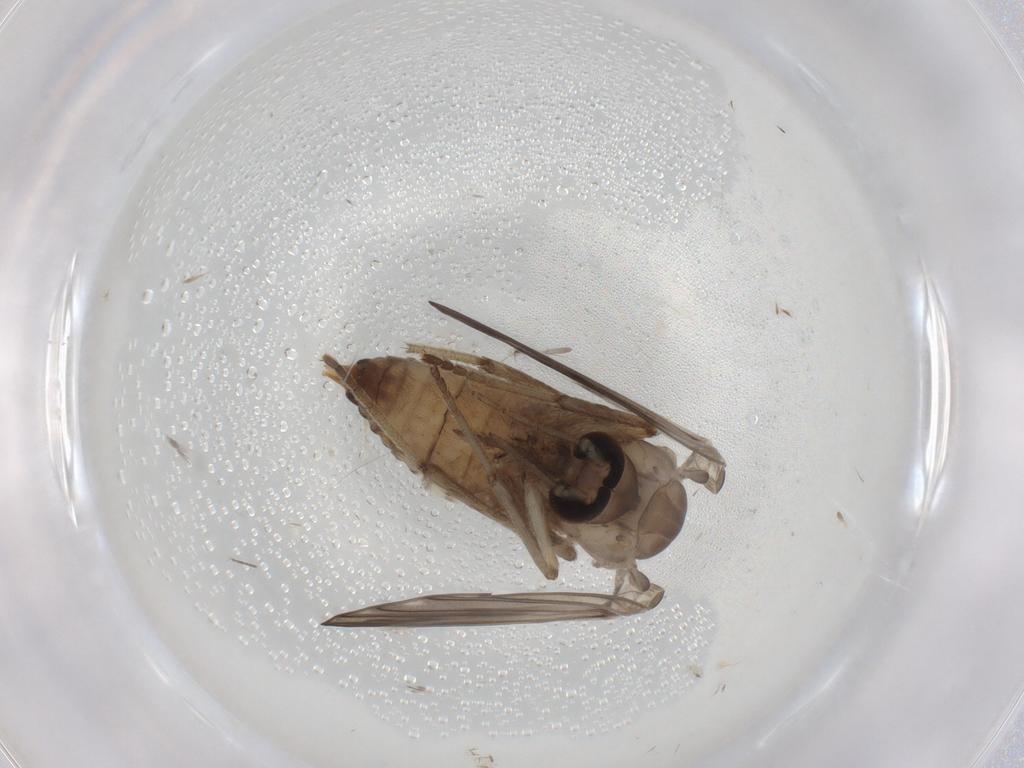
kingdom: Animalia
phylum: Arthropoda
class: Insecta
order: Diptera
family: Psychodidae
